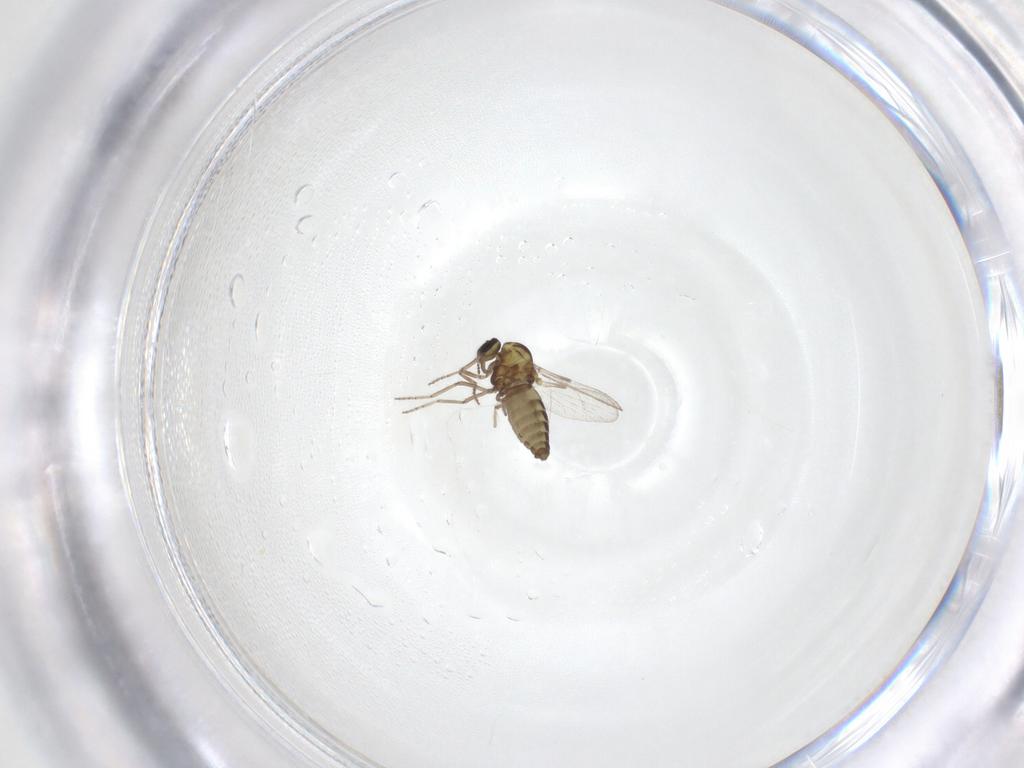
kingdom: Animalia
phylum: Arthropoda
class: Insecta
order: Diptera
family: Ceratopogonidae
